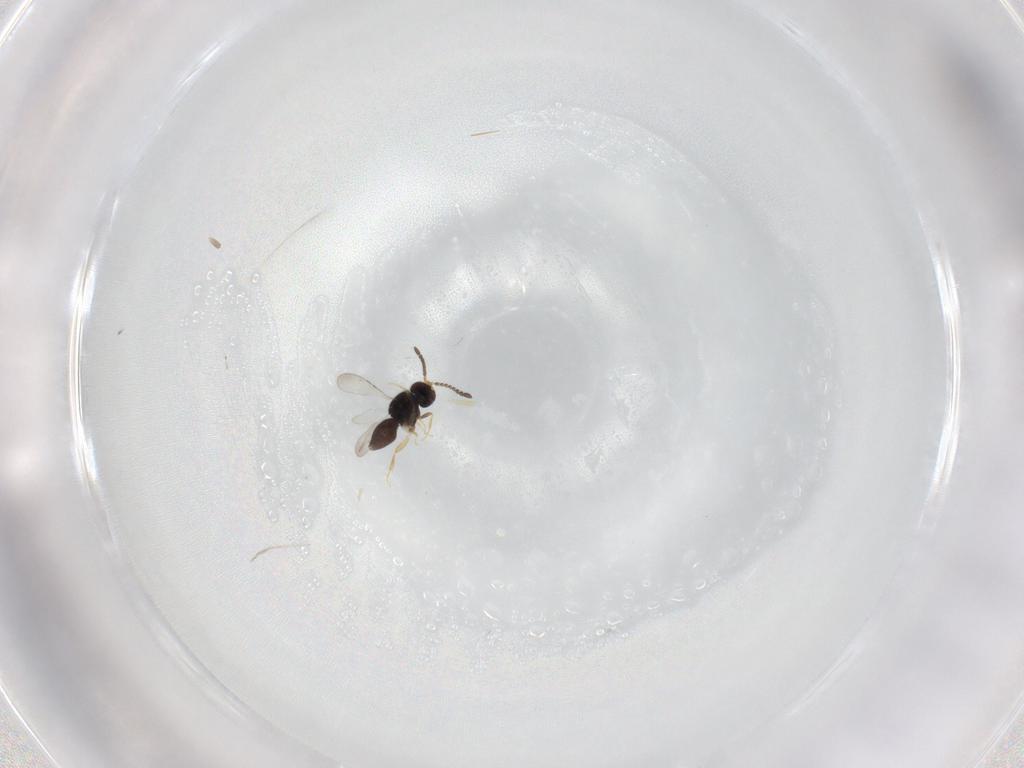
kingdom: Animalia
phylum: Arthropoda
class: Insecta
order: Hymenoptera
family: Ceraphronidae
